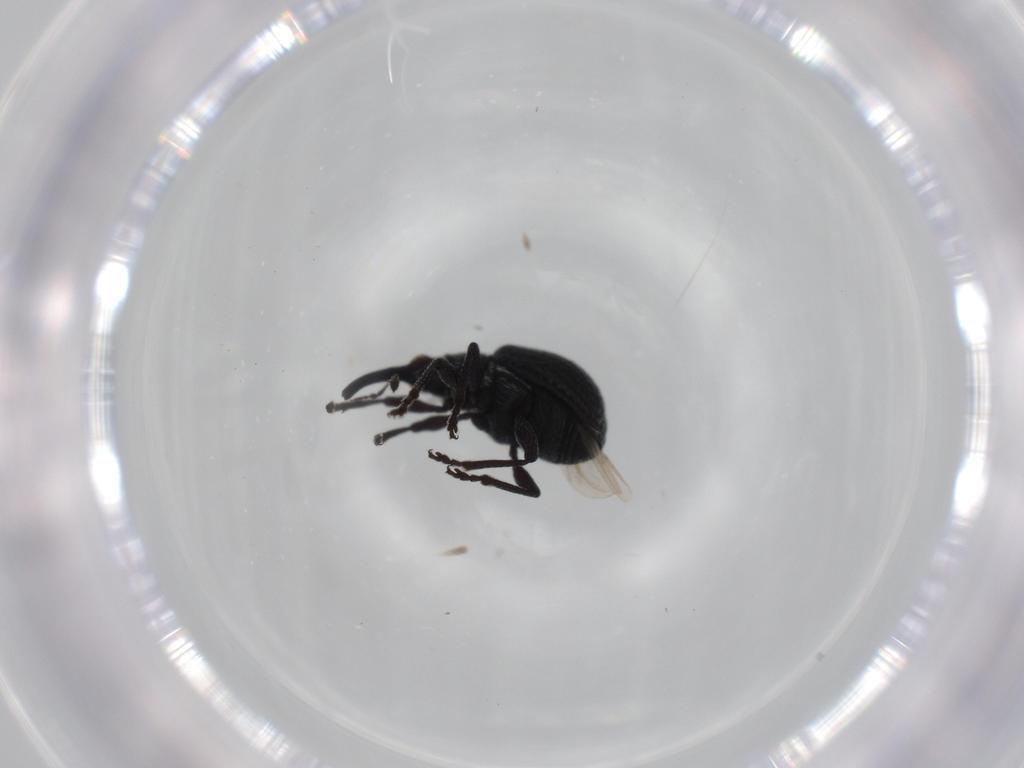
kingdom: Animalia
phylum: Arthropoda
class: Insecta
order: Coleoptera
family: Brentidae
